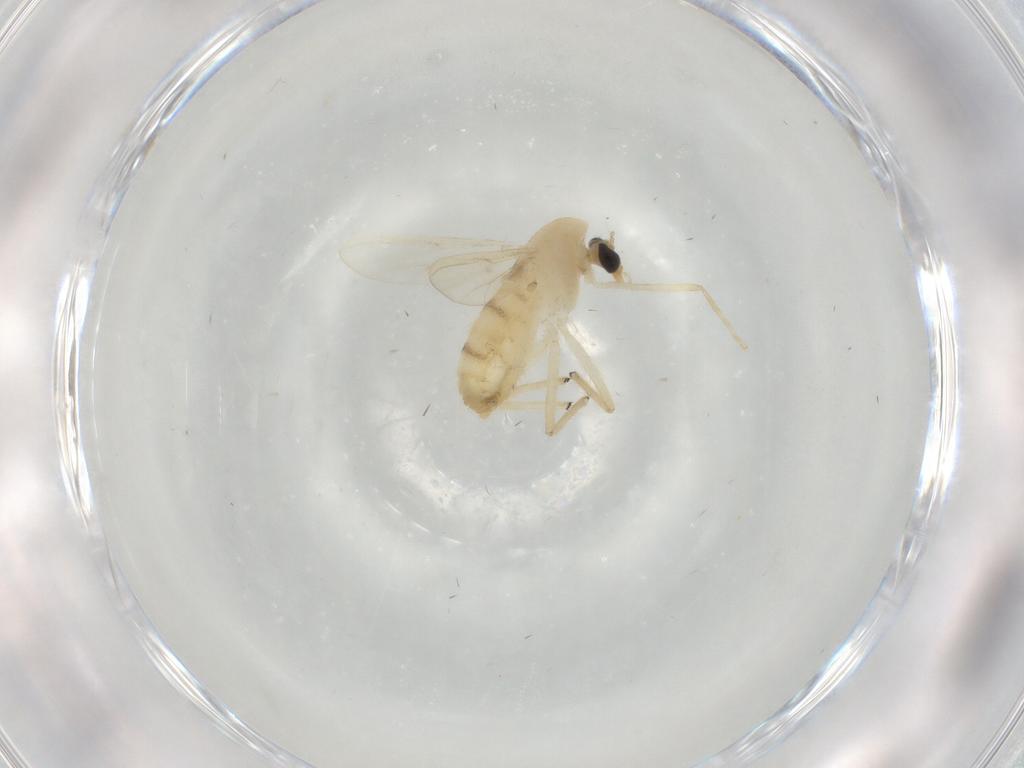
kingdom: Animalia
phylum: Arthropoda
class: Insecta
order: Diptera
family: Chironomidae
